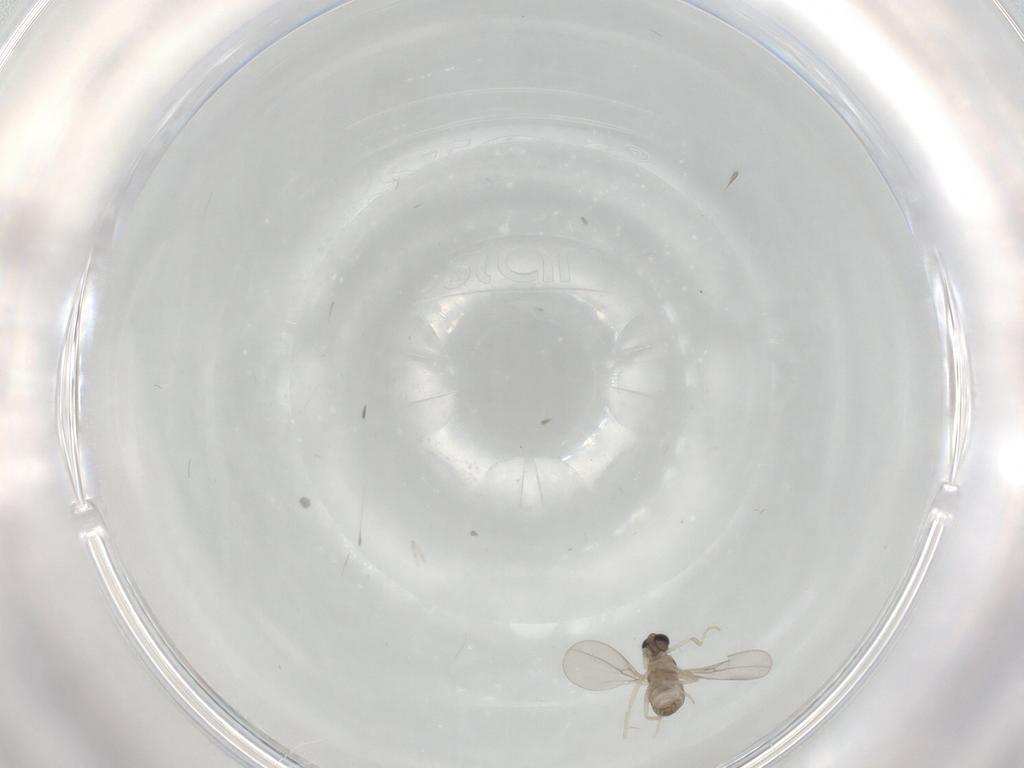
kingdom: Animalia
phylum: Arthropoda
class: Insecta
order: Diptera
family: Cecidomyiidae
